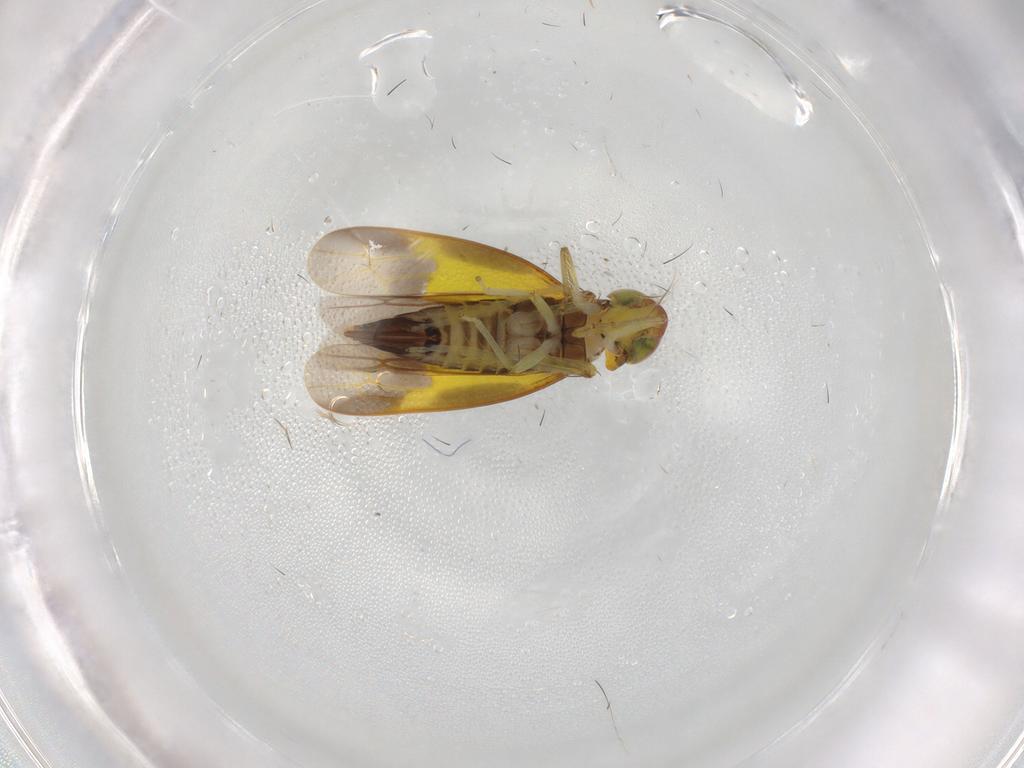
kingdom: Animalia
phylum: Arthropoda
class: Insecta
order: Hemiptera
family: Cicadellidae
